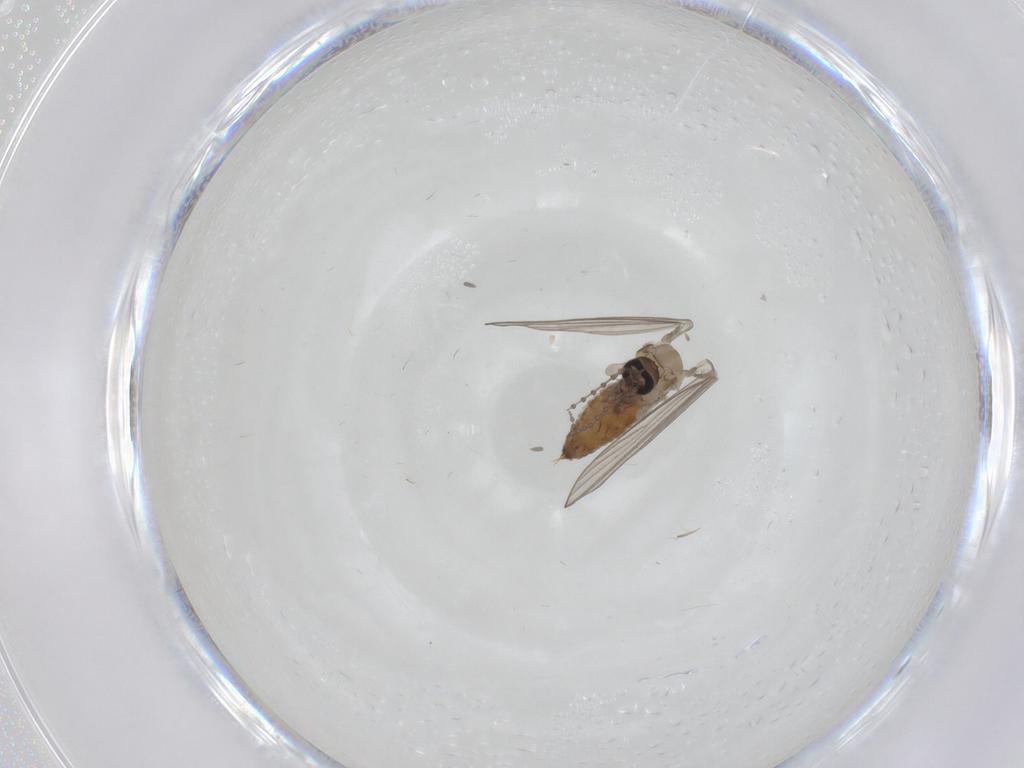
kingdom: Animalia
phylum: Arthropoda
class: Insecta
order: Diptera
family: Psychodidae
